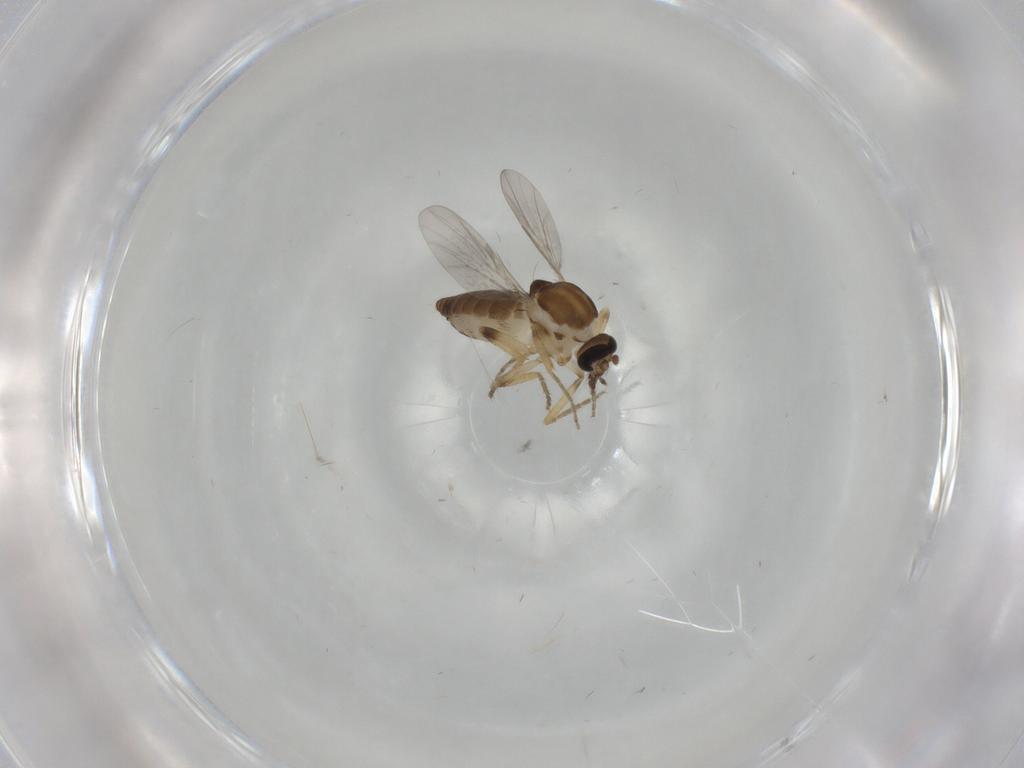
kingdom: Animalia
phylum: Arthropoda
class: Insecta
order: Diptera
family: Ceratopogonidae
